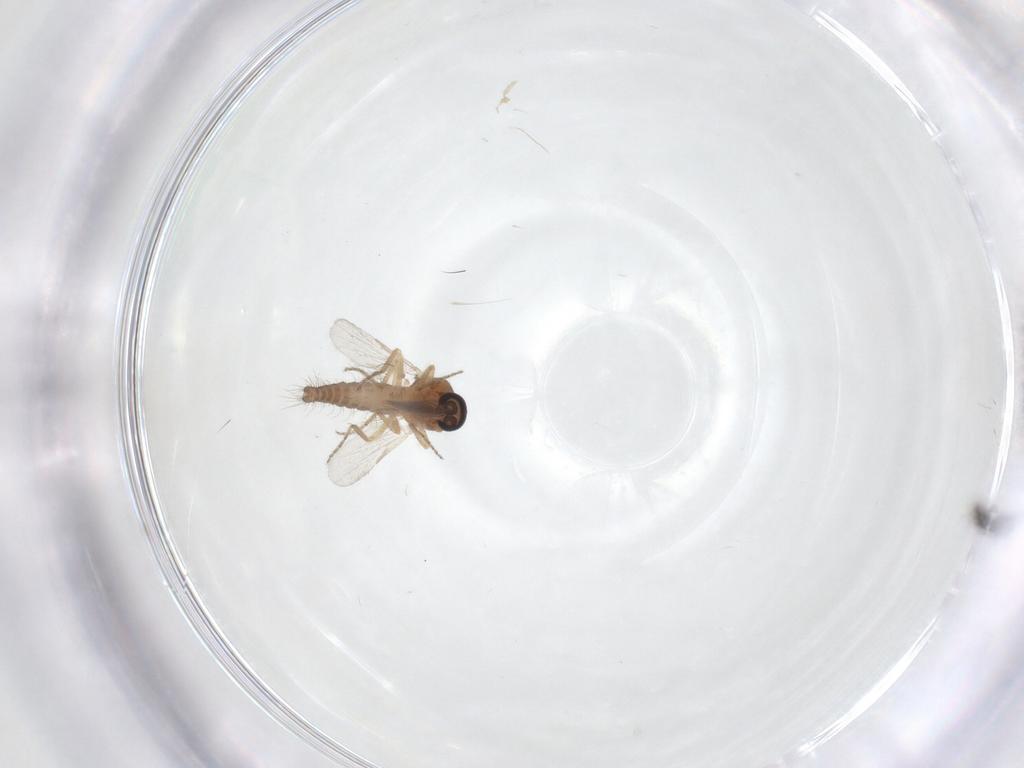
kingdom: Animalia
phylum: Arthropoda
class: Insecta
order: Diptera
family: Ceratopogonidae
